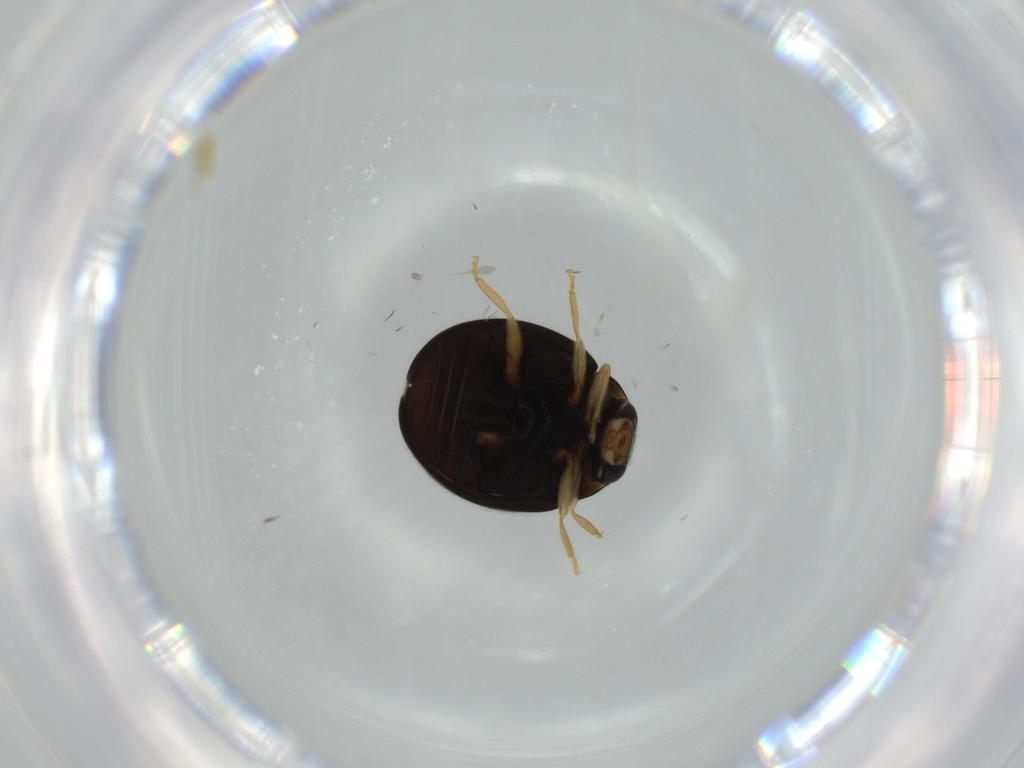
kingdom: Animalia
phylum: Arthropoda
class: Insecta
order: Coleoptera
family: Coccinellidae
